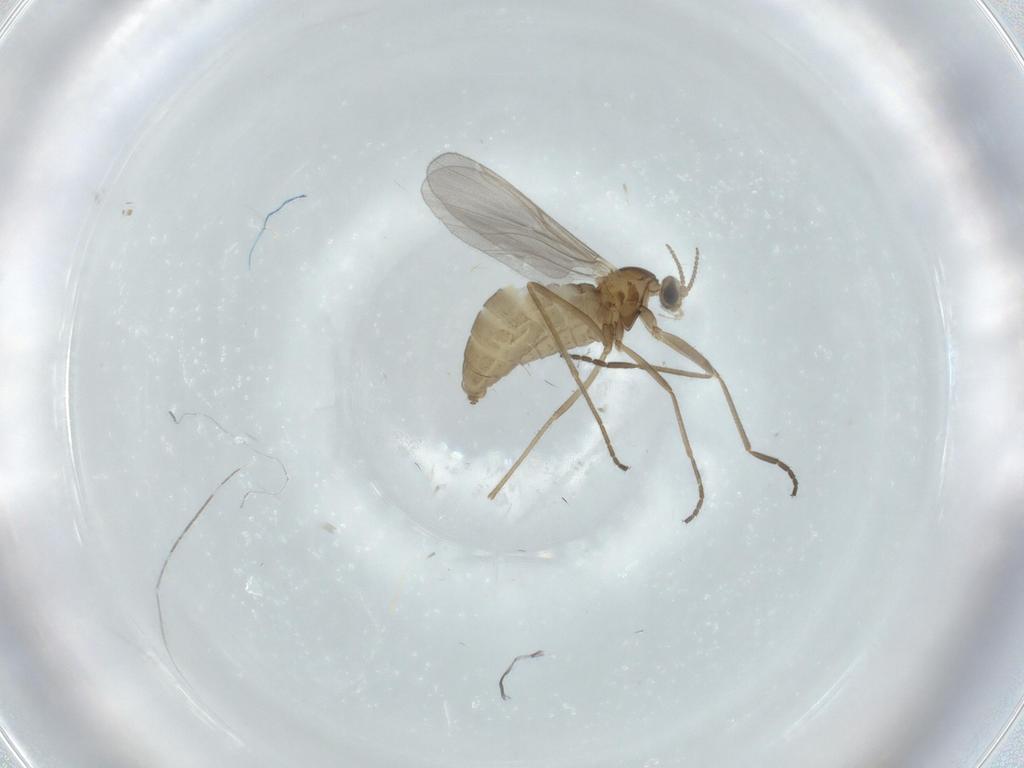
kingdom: Animalia
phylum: Arthropoda
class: Insecta
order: Diptera
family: Cecidomyiidae
